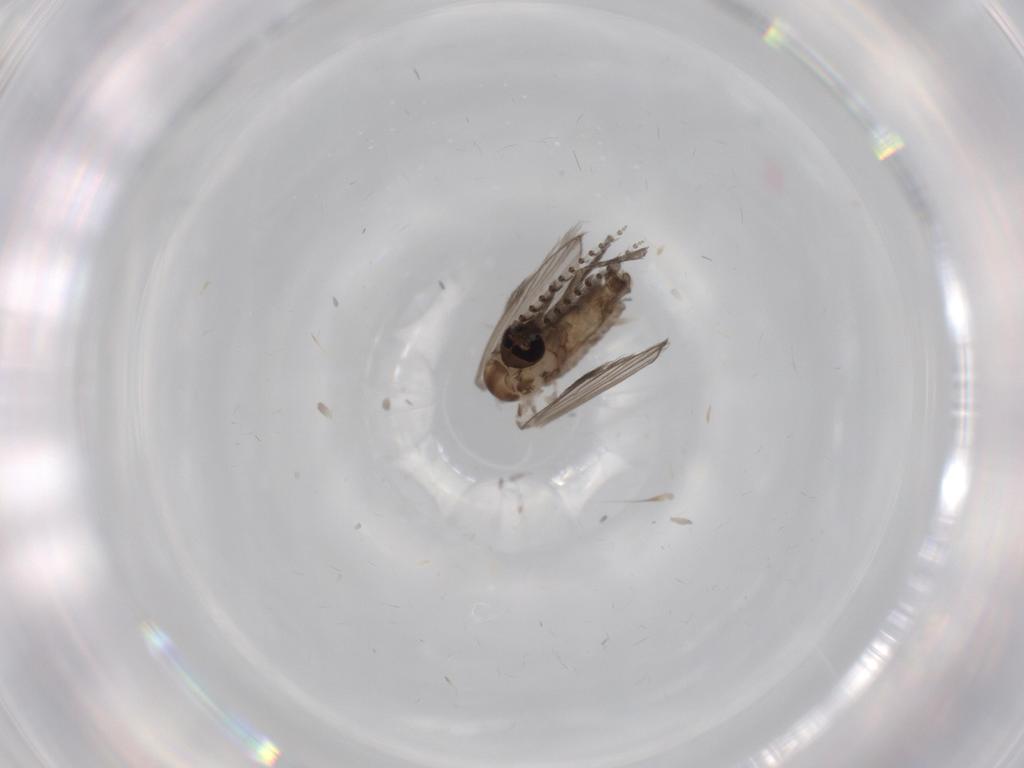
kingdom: Animalia
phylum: Arthropoda
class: Insecta
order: Diptera
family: Psychodidae
